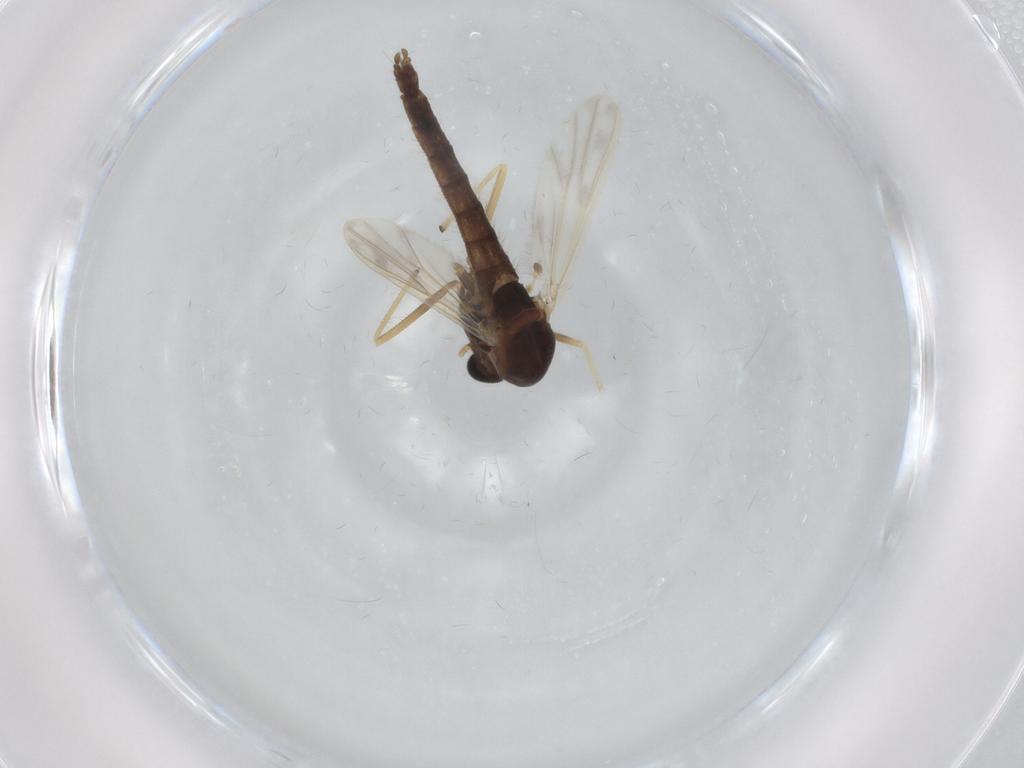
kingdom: Animalia
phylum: Arthropoda
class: Insecta
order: Diptera
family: Chironomidae
